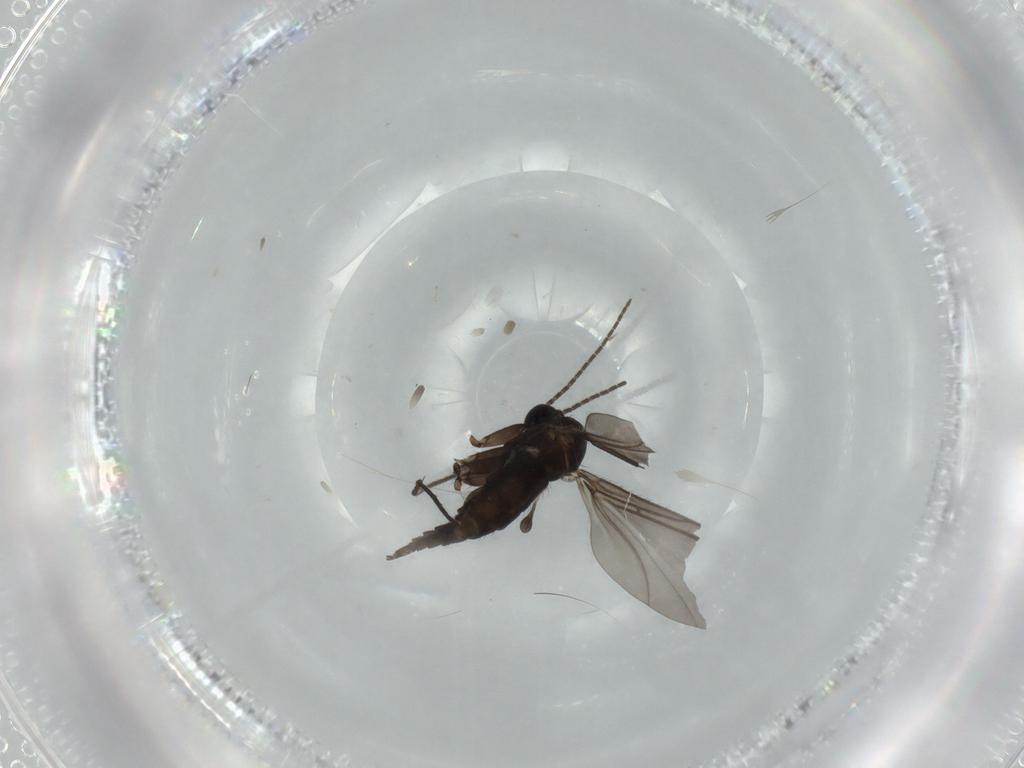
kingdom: Animalia
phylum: Arthropoda
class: Insecta
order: Diptera
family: Sciaridae
